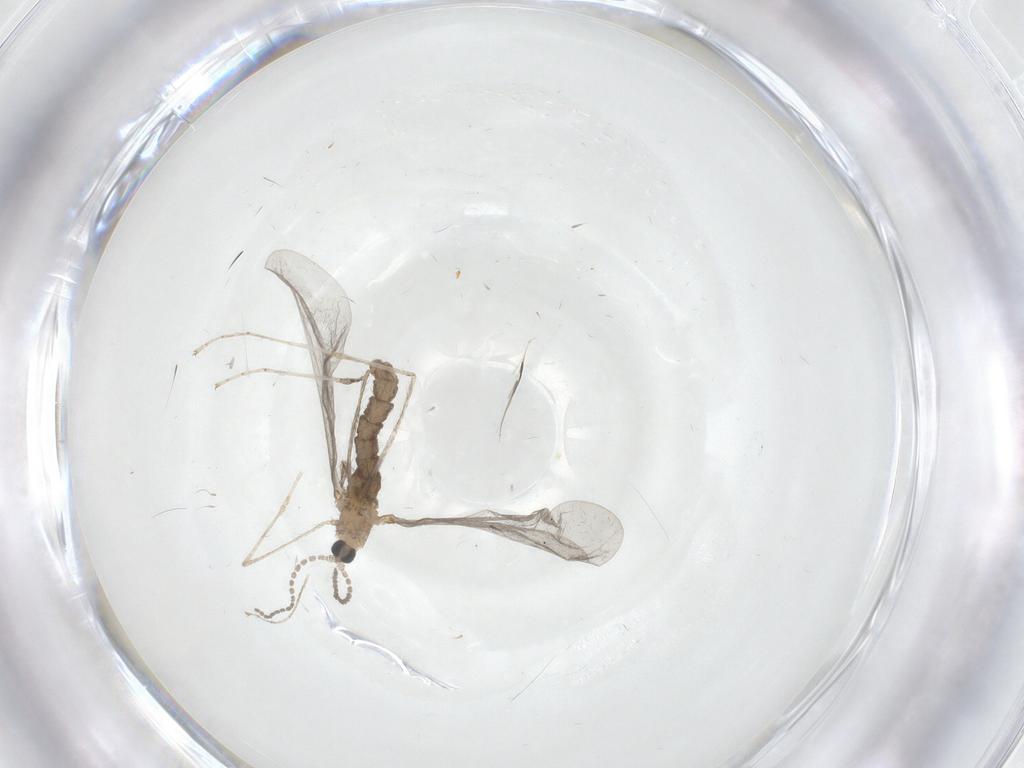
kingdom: Animalia
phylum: Arthropoda
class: Insecta
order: Diptera
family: Cecidomyiidae
